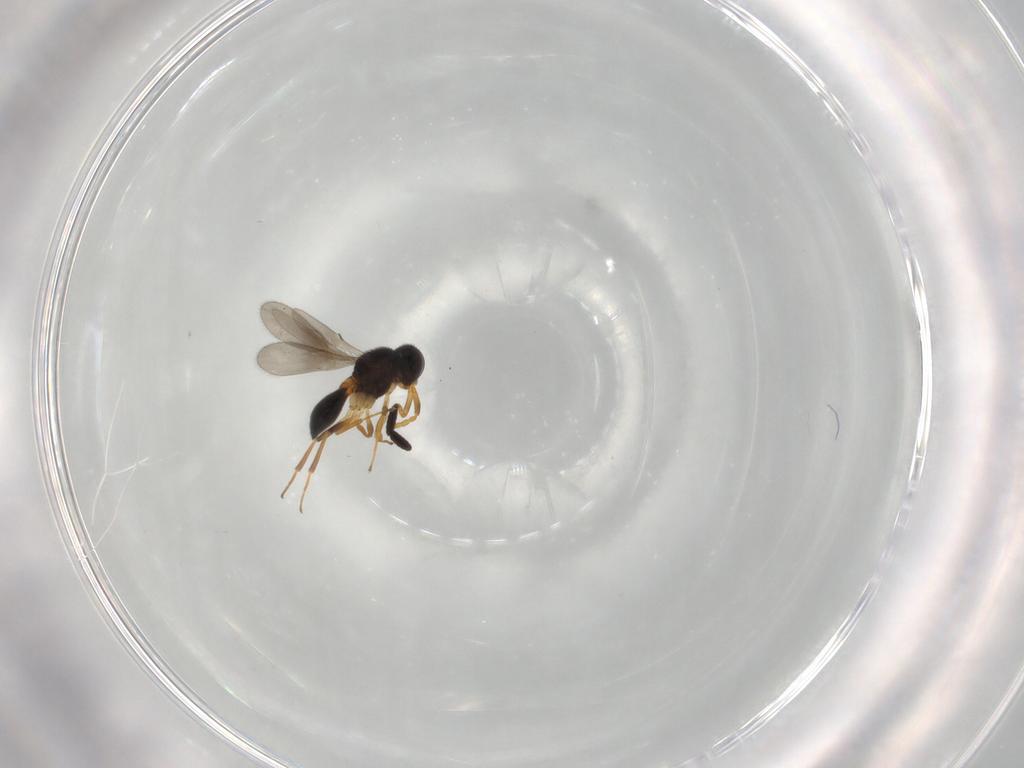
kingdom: Animalia
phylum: Arthropoda
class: Insecta
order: Hymenoptera
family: Scelionidae
